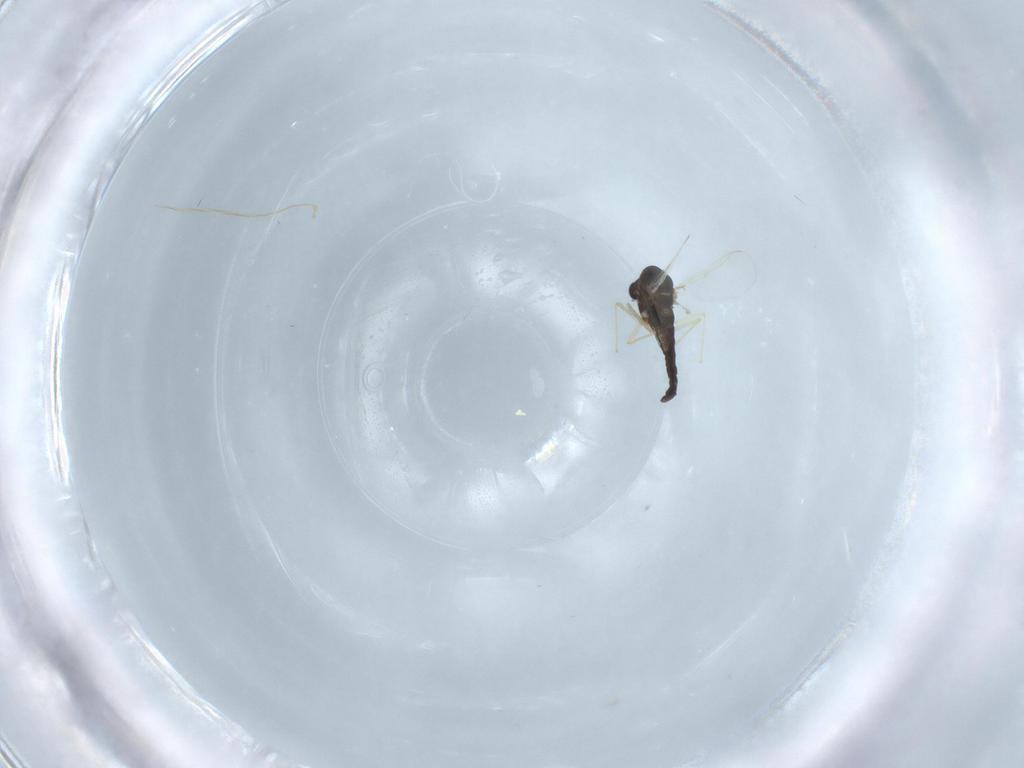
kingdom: Animalia
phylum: Arthropoda
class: Insecta
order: Diptera
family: Chironomidae
